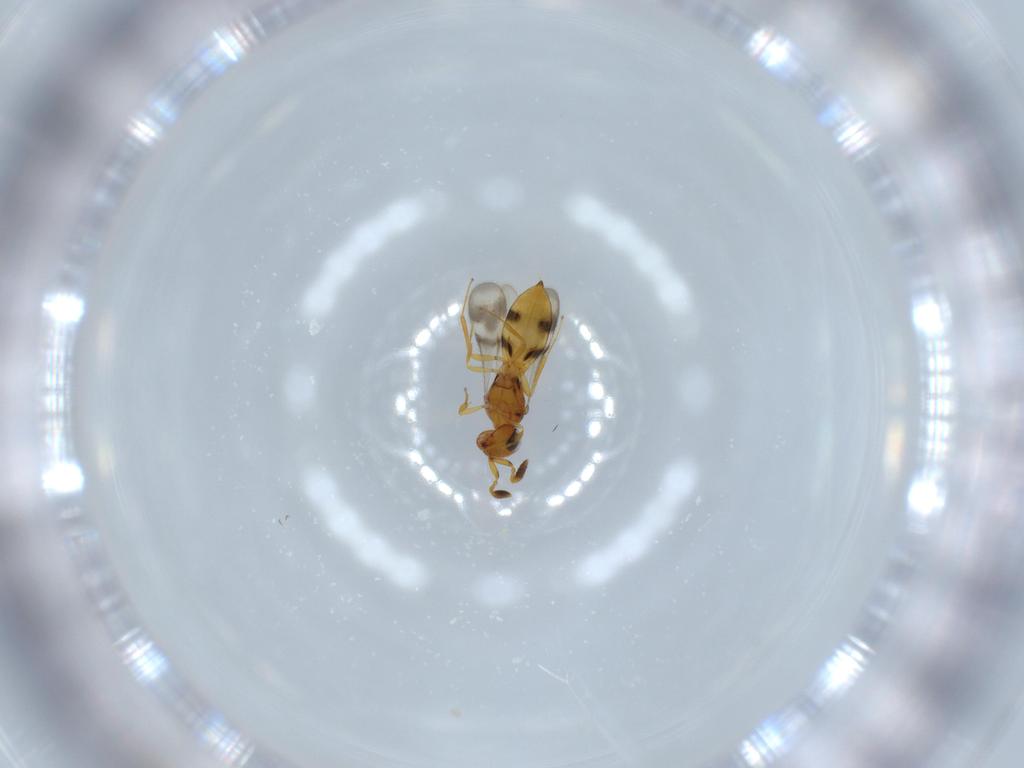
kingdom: Animalia
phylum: Arthropoda
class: Insecta
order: Hymenoptera
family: Scelionidae
